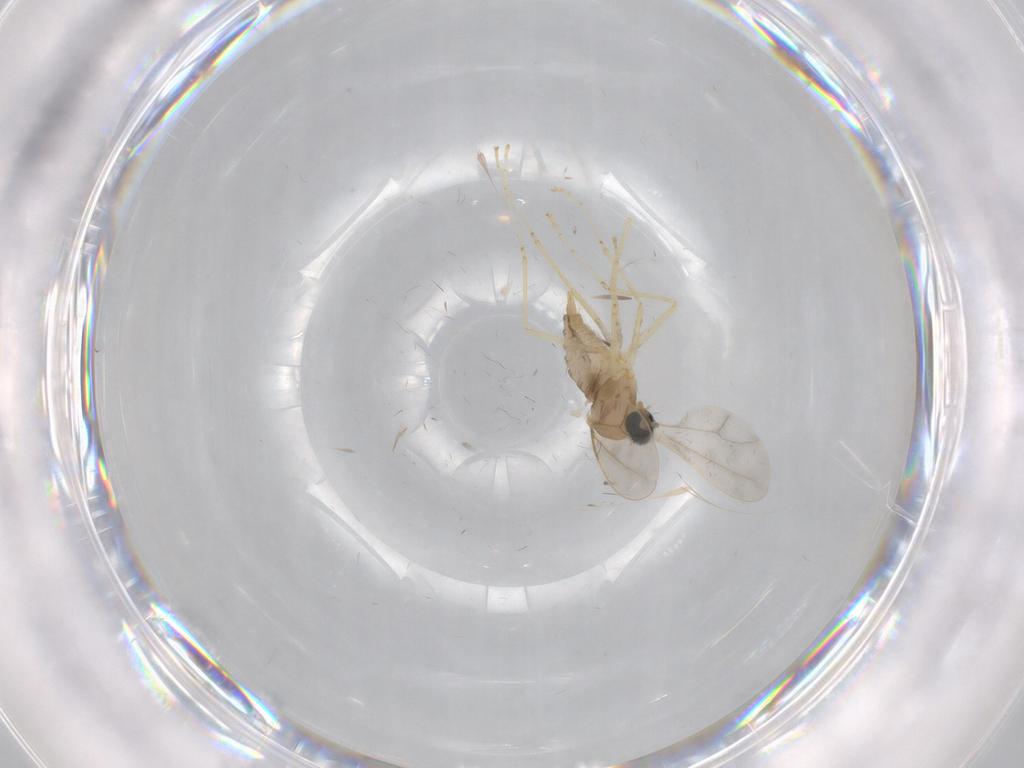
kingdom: Animalia
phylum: Arthropoda
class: Insecta
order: Diptera
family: Cecidomyiidae
